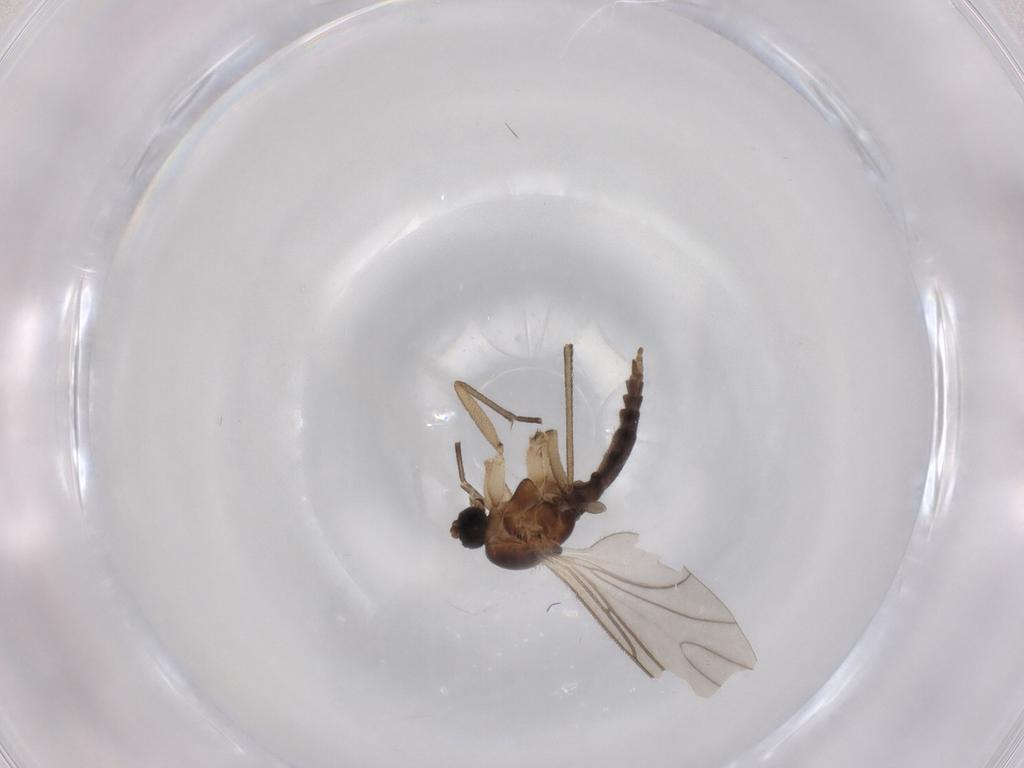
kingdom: Animalia
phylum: Arthropoda
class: Insecta
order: Diptera
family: Sciaridae
